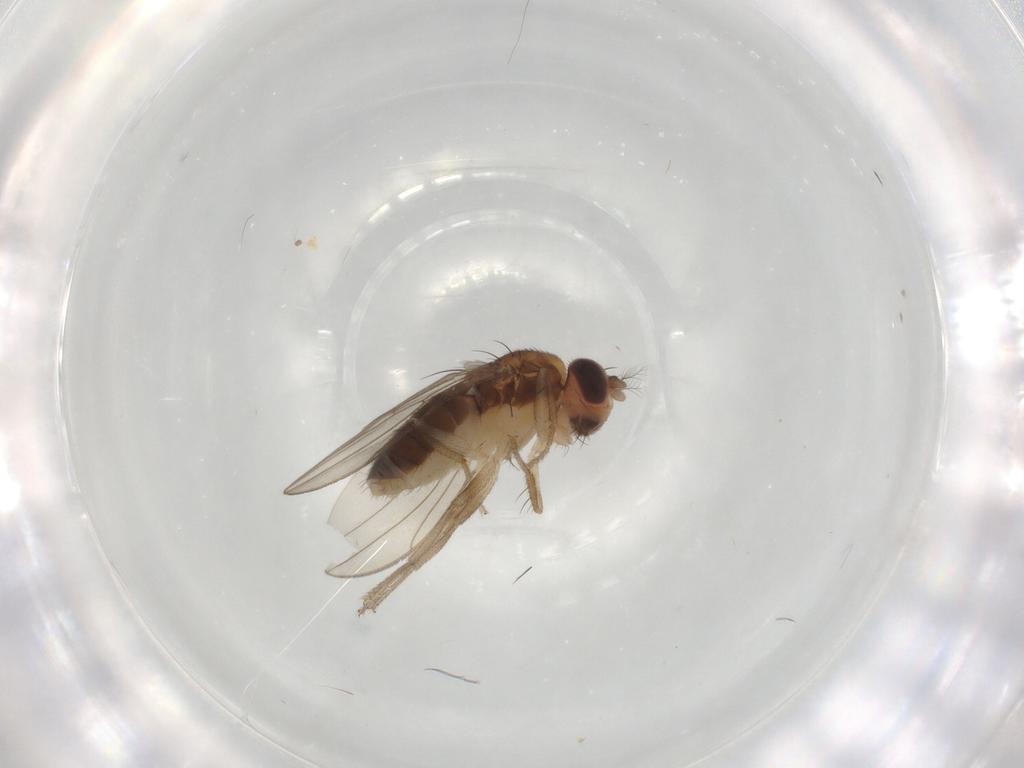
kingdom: Animalia
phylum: Arthropoda
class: Insecta
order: Diptera
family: Drosophilidae
